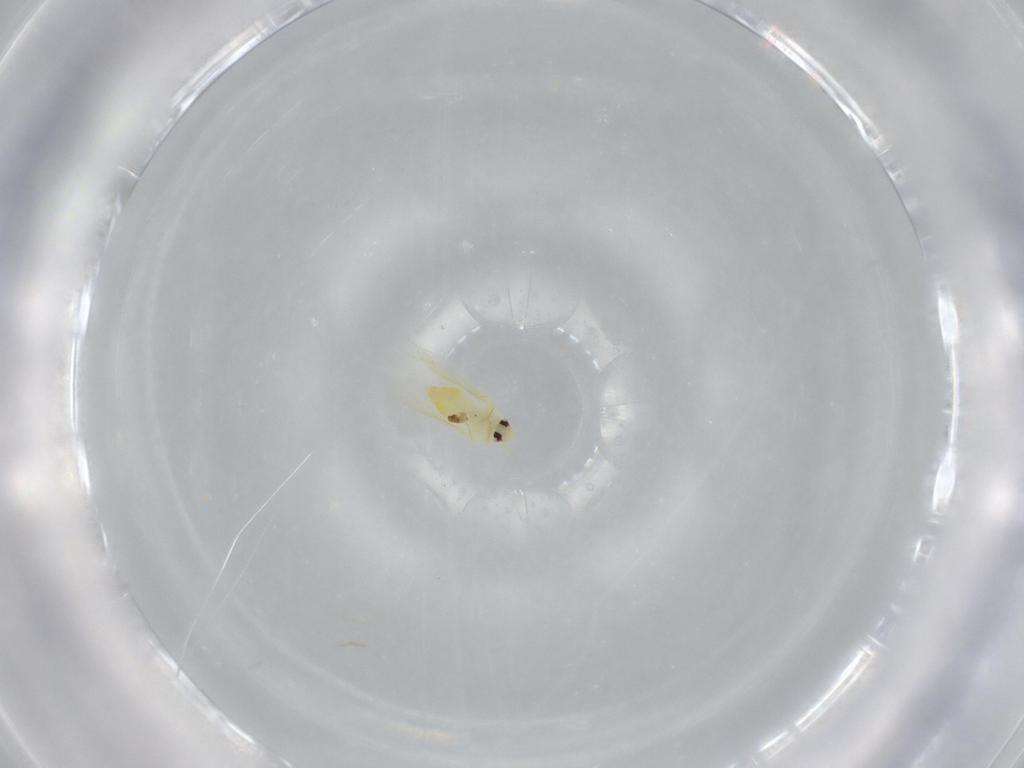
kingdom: Animalia
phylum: Arthropoda
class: Insecta
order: Hemiptera
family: Aleyrodidae
